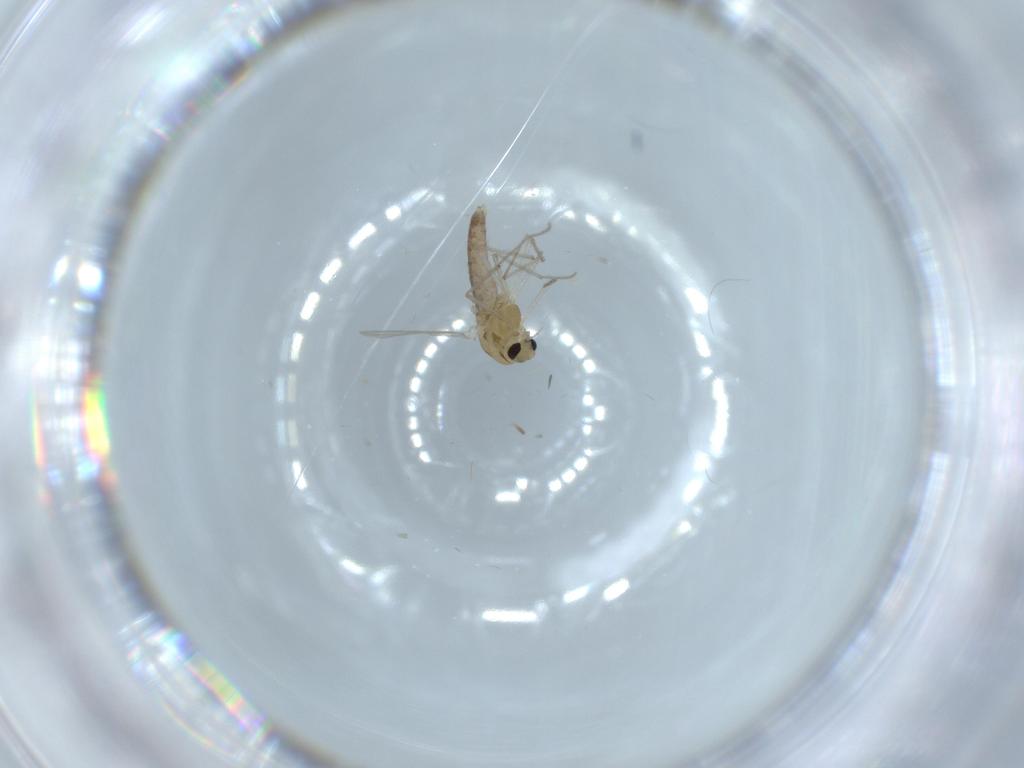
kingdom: Animalia
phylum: Arthropoda
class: Insecta
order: Diptera
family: Chironomidae
